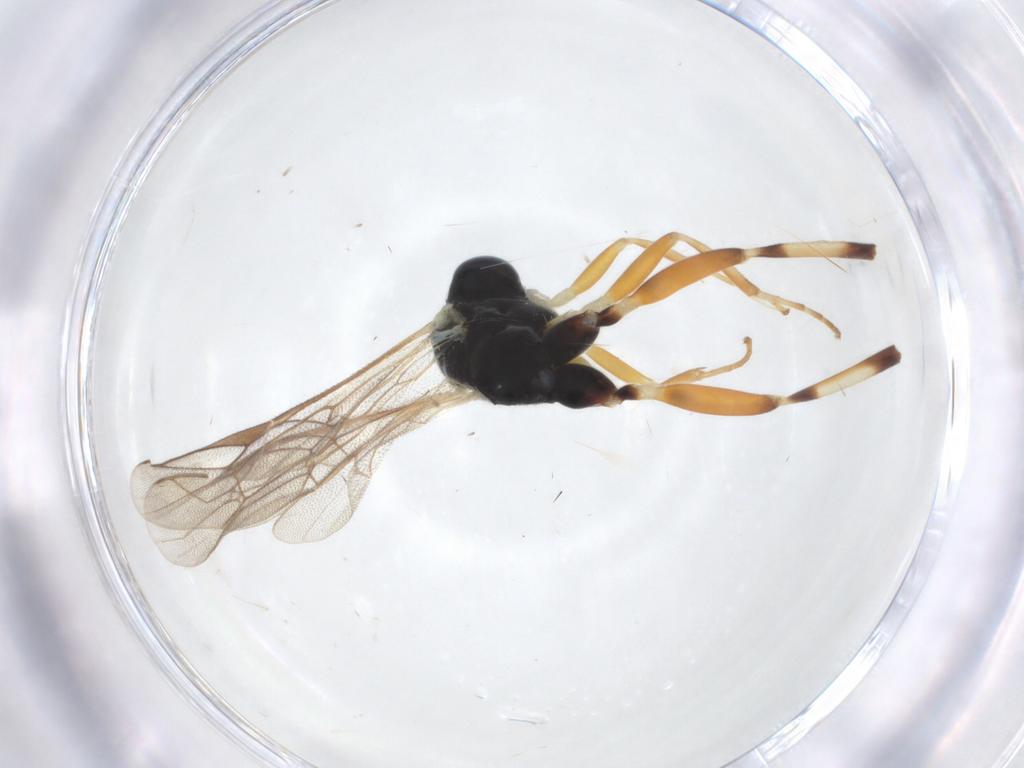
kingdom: Animalia
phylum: Arthropoda
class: Insecta
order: Hymenoptera
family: Ichneumonidae
